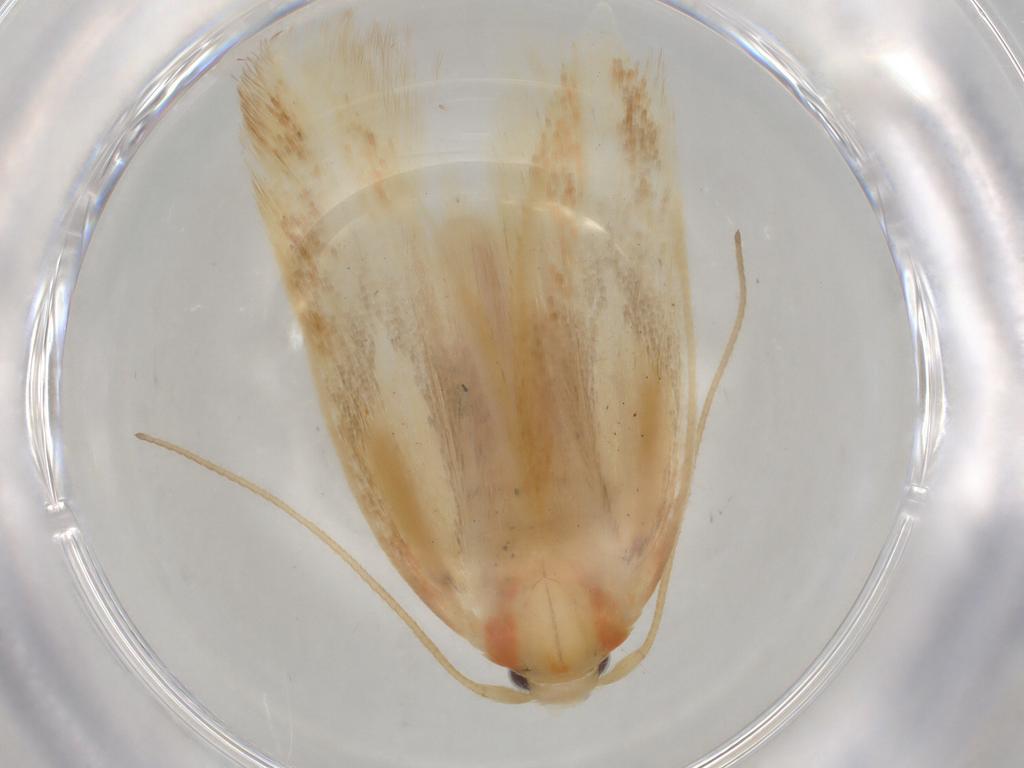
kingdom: Animalia
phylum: Arthropoda
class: Insecta
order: Lepidoptera
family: Geometridae
